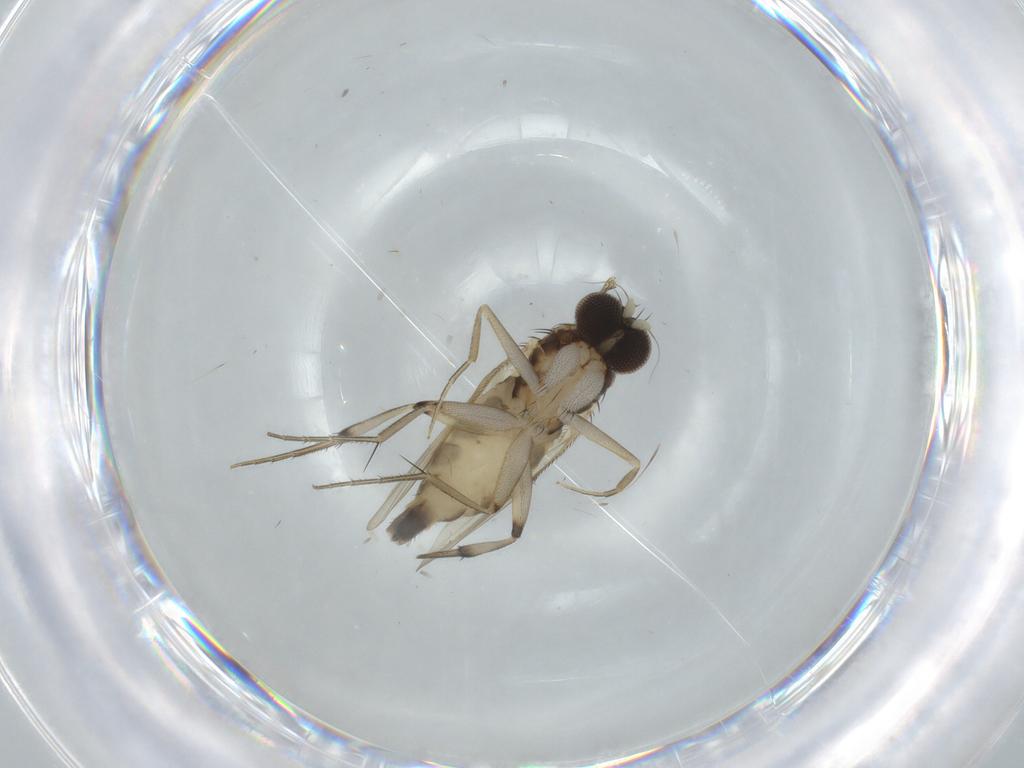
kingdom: Animalia
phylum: Arthropoda
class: Insecta
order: Diptera
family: Phoridae
